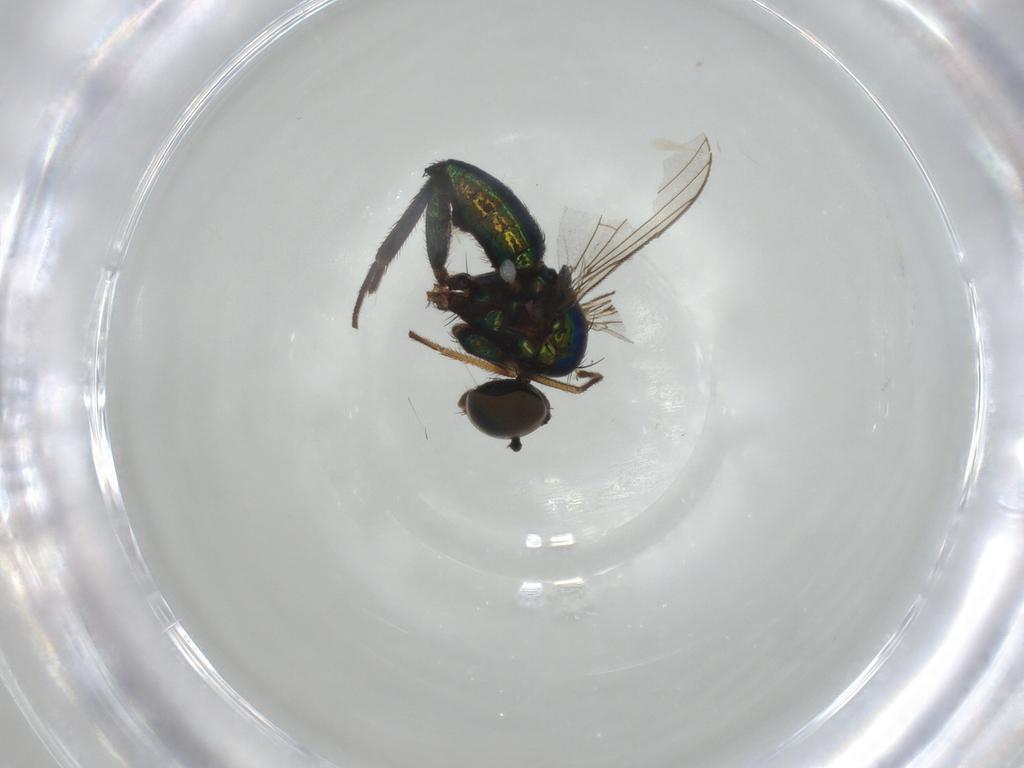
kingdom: Animalia
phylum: Arthropoda
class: Insecta
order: Diptera
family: Dolichopodidae
